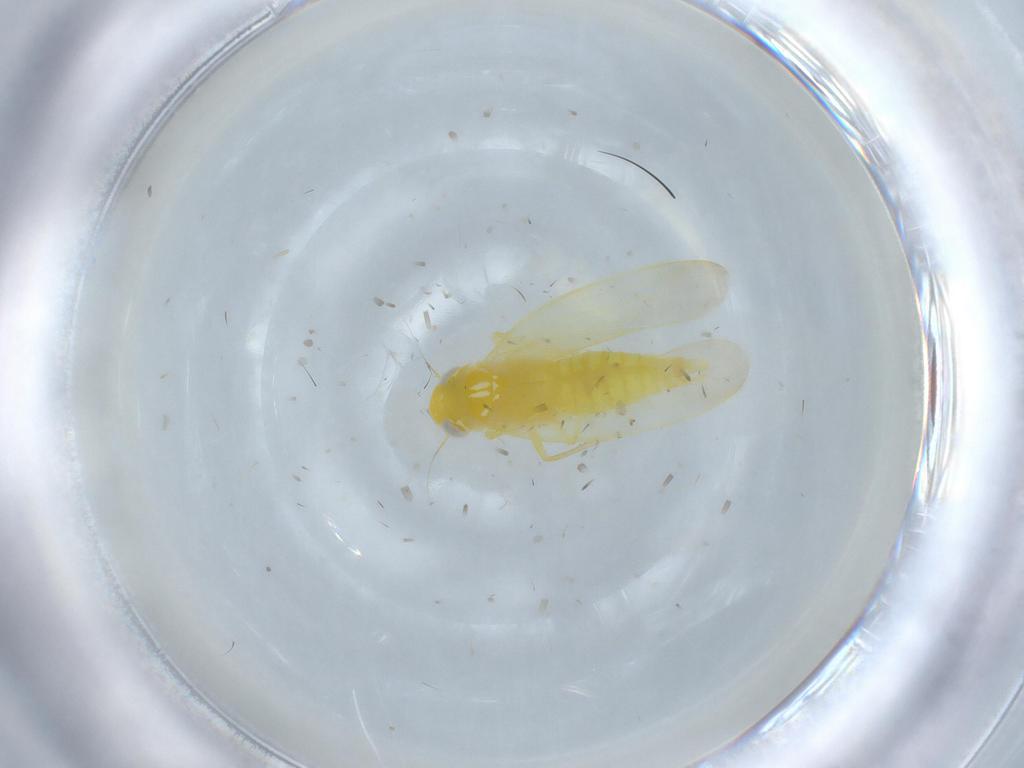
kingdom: Animalia
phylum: Arthropoda
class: Insecta
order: Hemiptera
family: Cicadellidae
